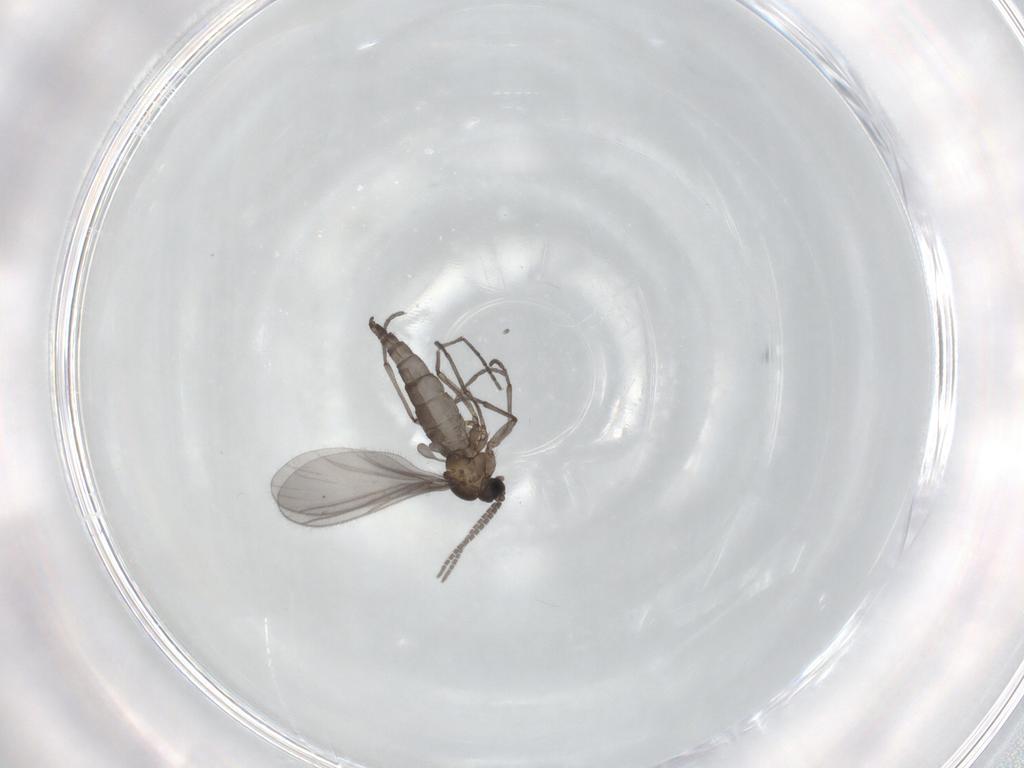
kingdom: Animalia
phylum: Arthropoda
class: Insecta
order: Diptera
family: Sciaridae
